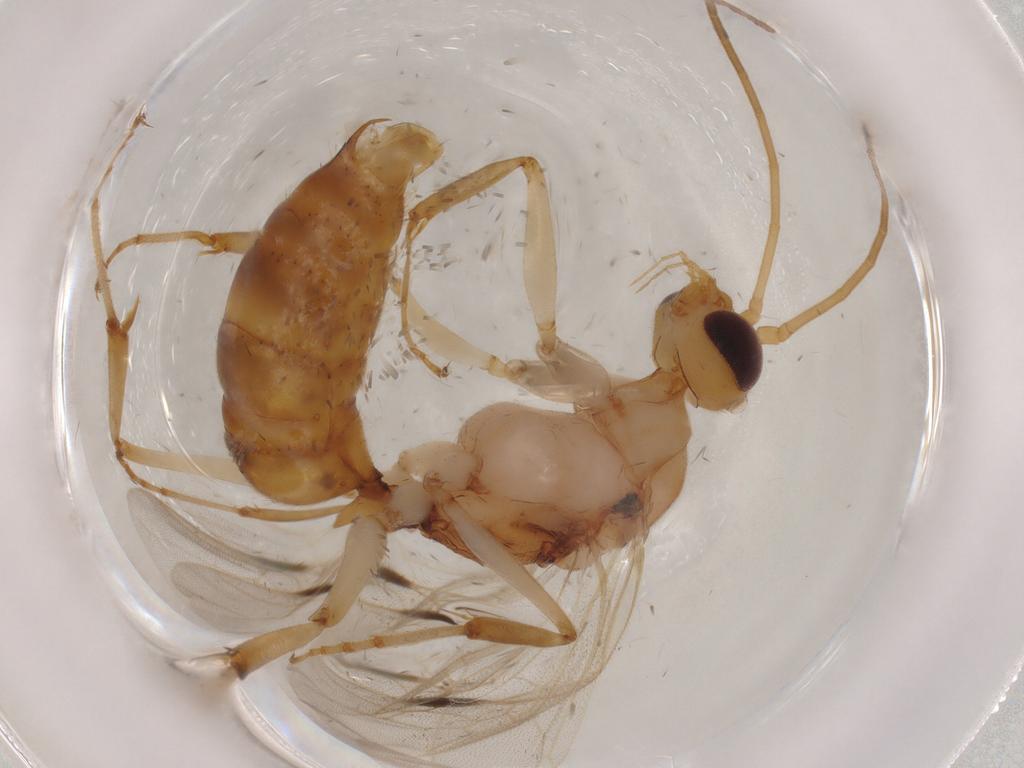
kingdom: Animalia
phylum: Arthropoda
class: Insecta
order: Hymenoptera
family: Formicidae
